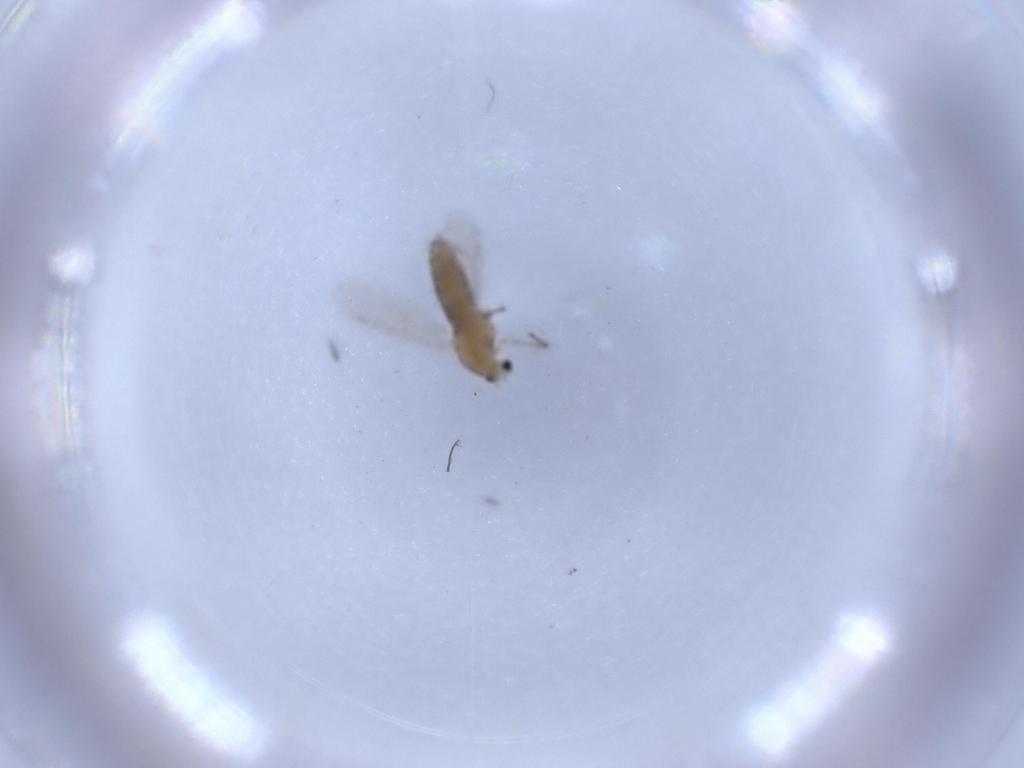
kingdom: Animalia
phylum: Arthropoda
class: Insecta
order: Diptera
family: Chironomidae
